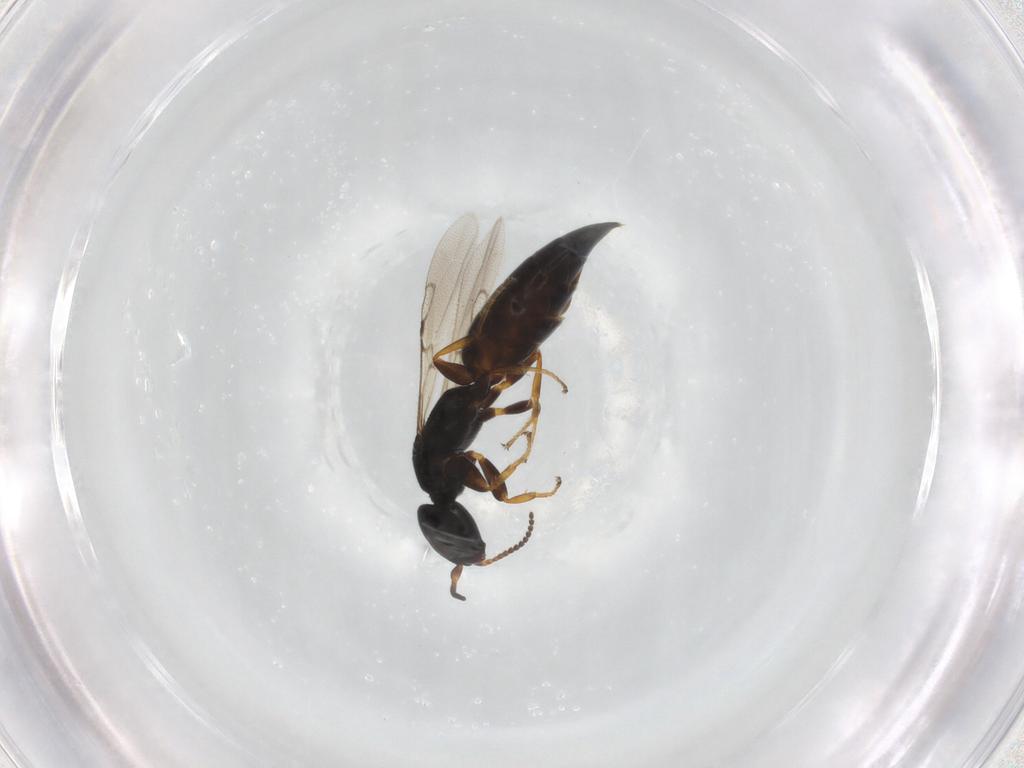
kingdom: Animalia
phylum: Arthropoda
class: Insecta
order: Hymenoptera
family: Bethylidae
